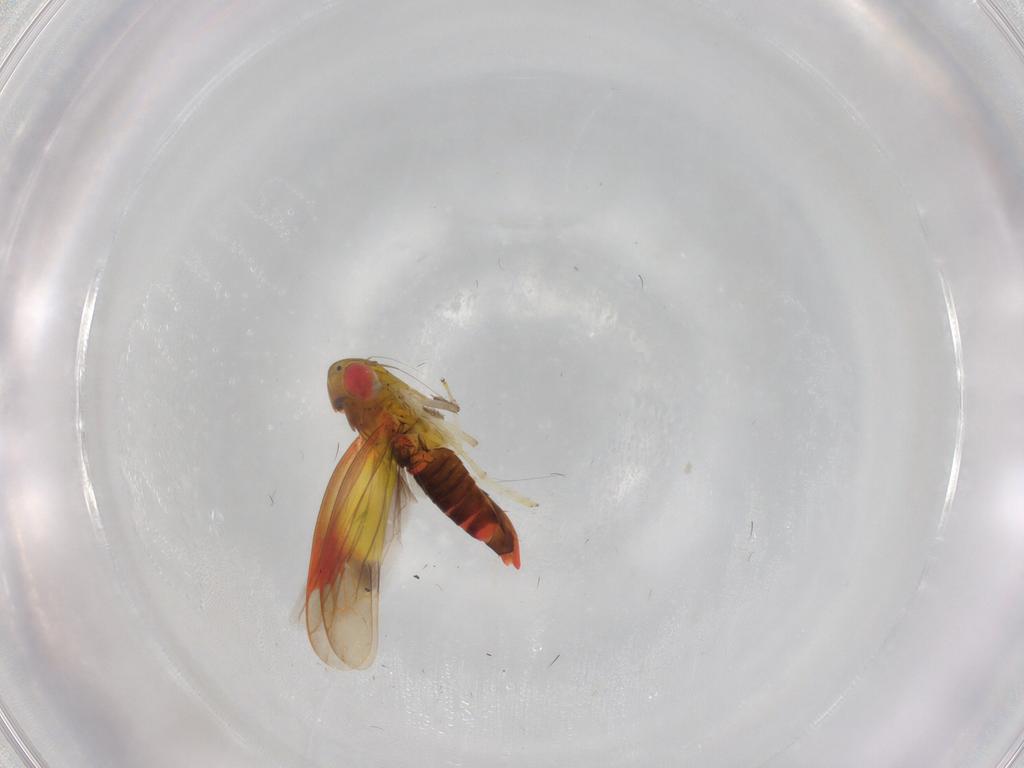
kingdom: Animalia
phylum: Arthropoda
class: Insecta
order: Hemiptera
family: Cicadellidae
